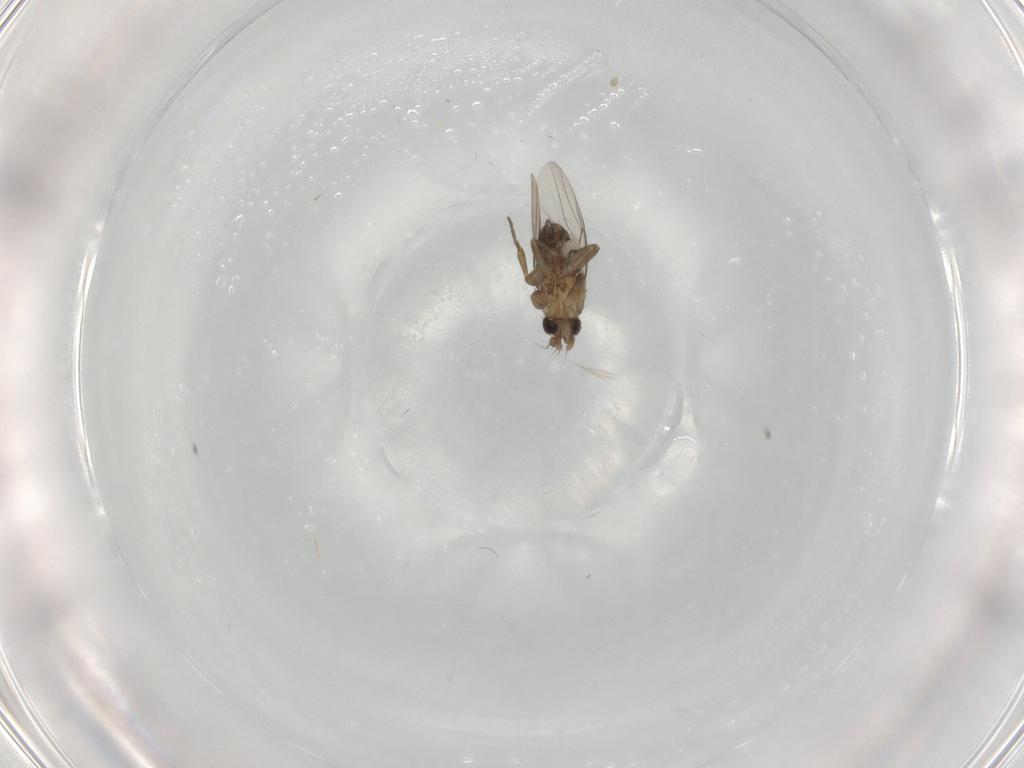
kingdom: Animalia
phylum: Arthropoda
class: Insecta
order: Diptera
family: Phoridae
